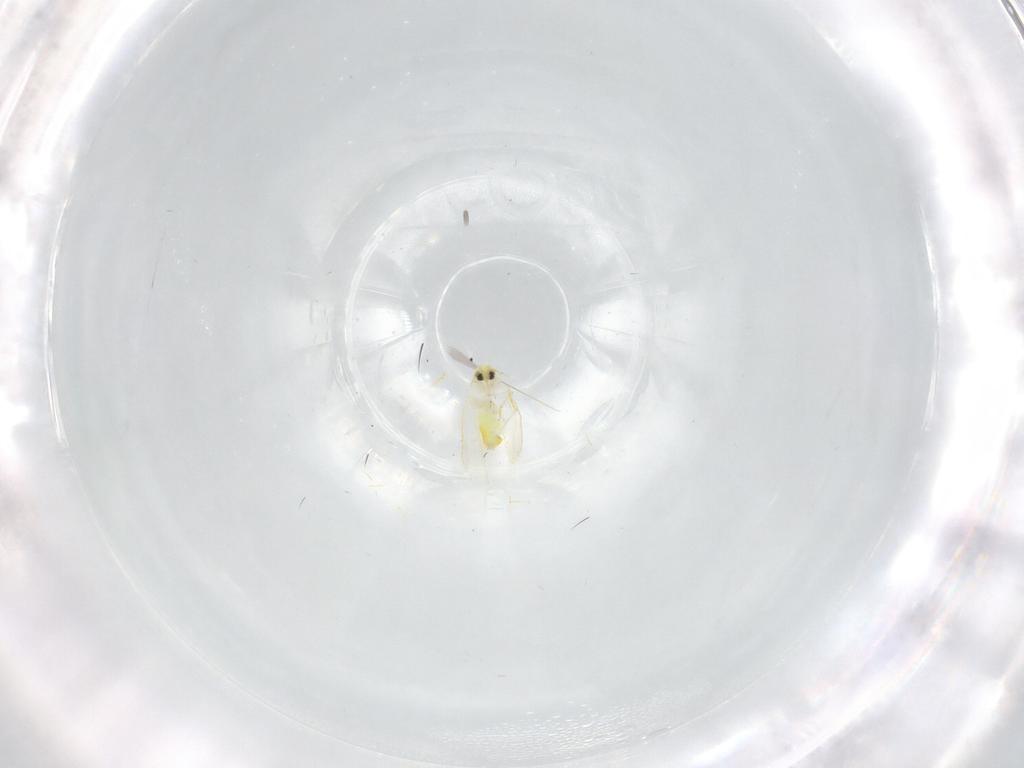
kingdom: Animalia
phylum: Arthropoda
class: Insecta
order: Hemiptera
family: Aleyrodidae
